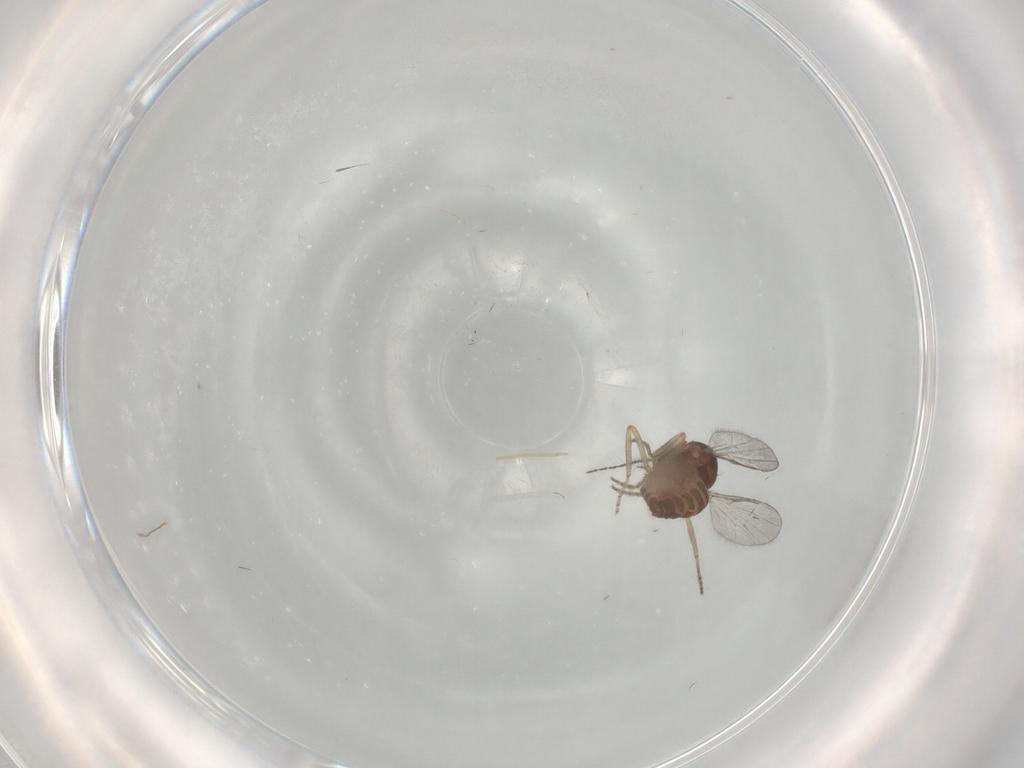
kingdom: Animalia
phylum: Arthropoda
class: Insecta
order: Diptera
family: Ceratopogonidae
